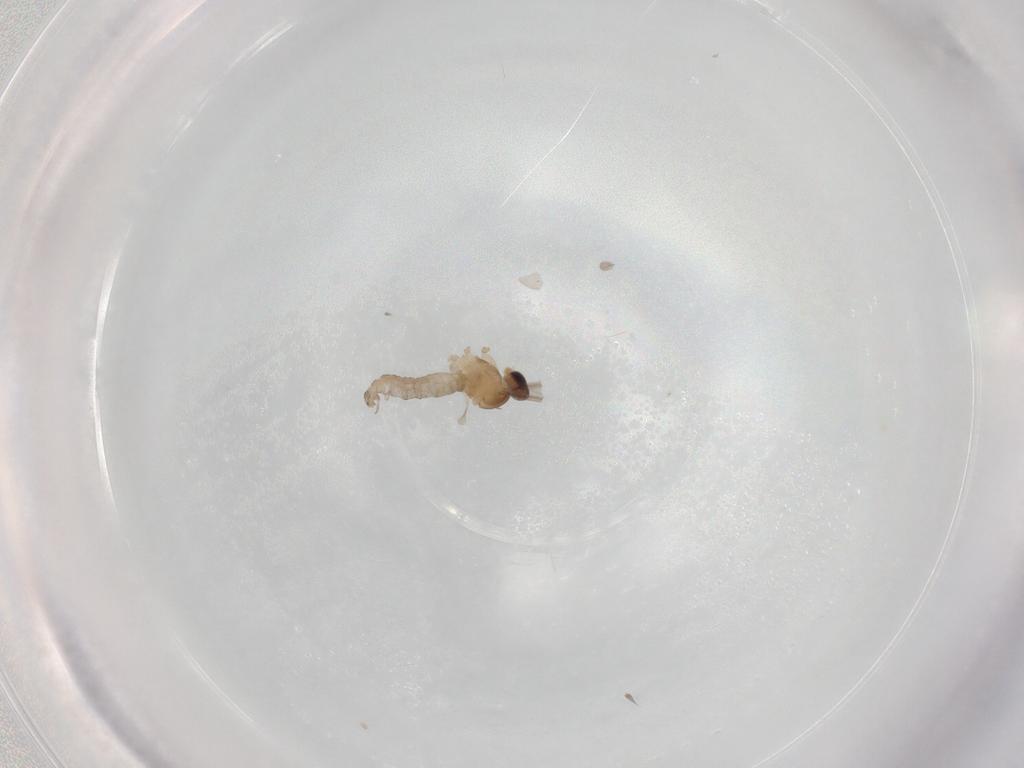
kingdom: Animalia
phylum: Arthropoda
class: Insecta
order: Diptera
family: Cecidomyiidae
